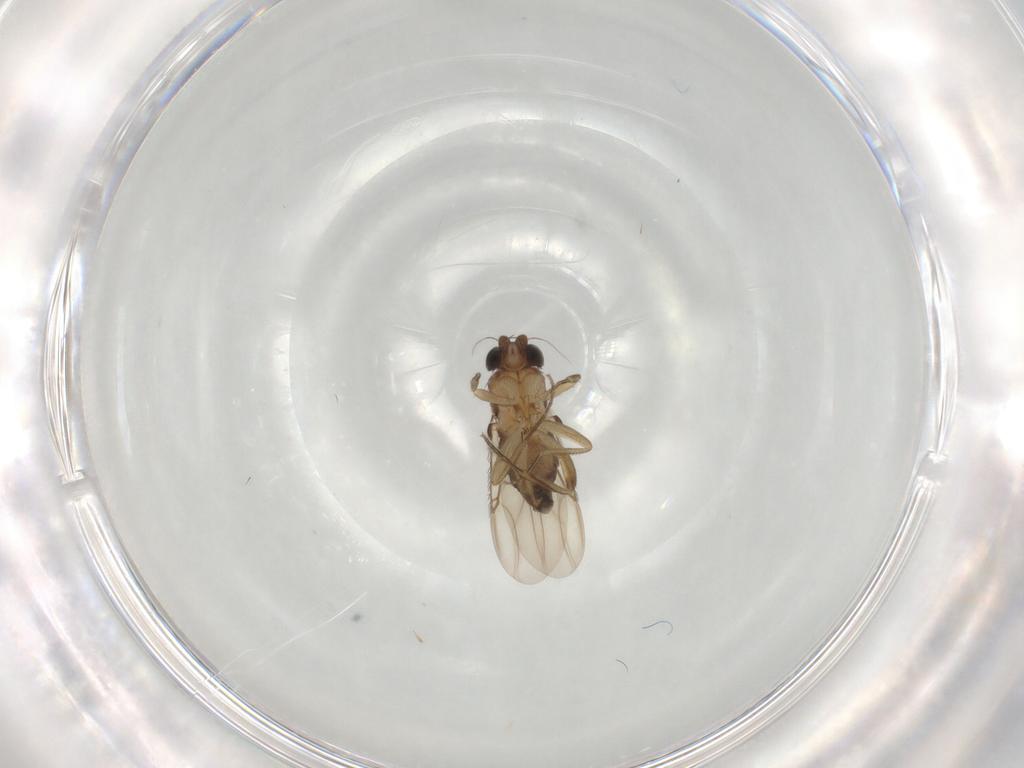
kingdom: Animalia
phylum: Arthropoda
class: Insecta
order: Diptera
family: Phoridae
